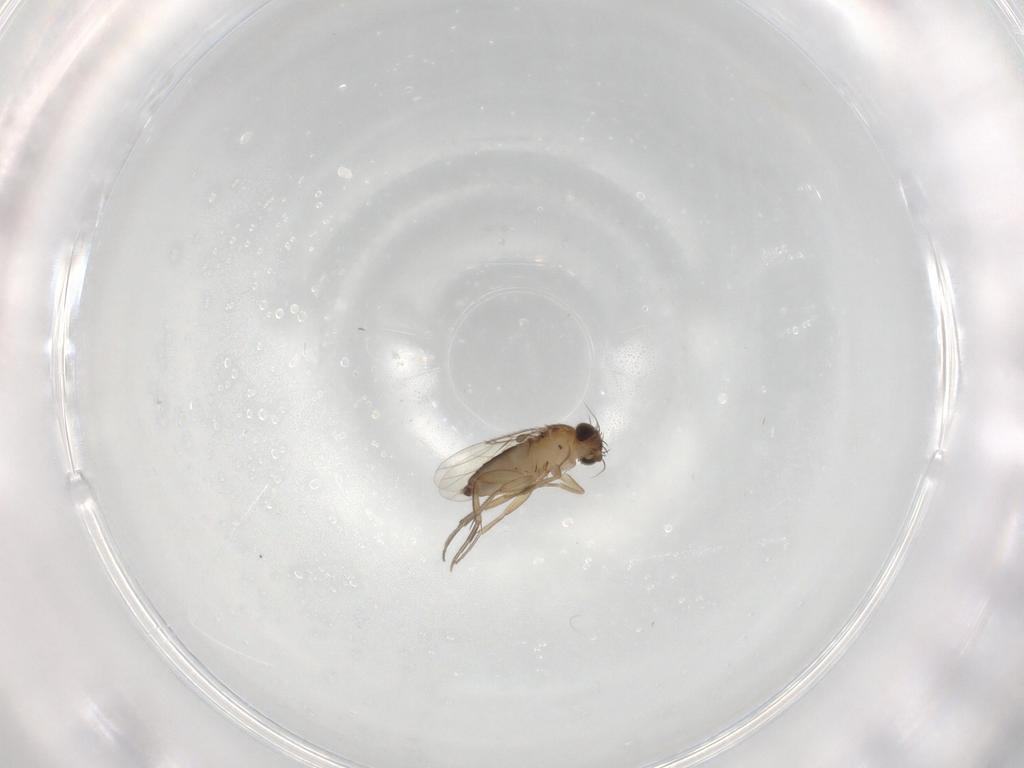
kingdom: Animalia
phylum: Arthropoda
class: Insecta
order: Diptera
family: Phoridae
